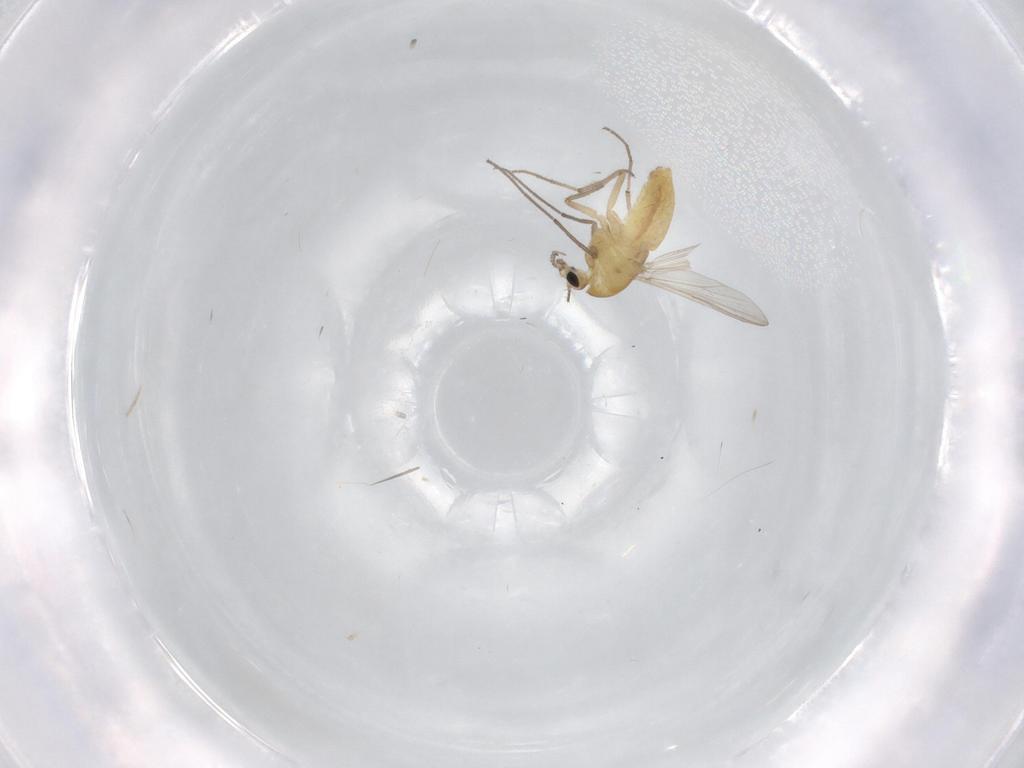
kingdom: Animalia
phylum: Arthropoda
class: Insecta
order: Diptera
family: Chironomidae
